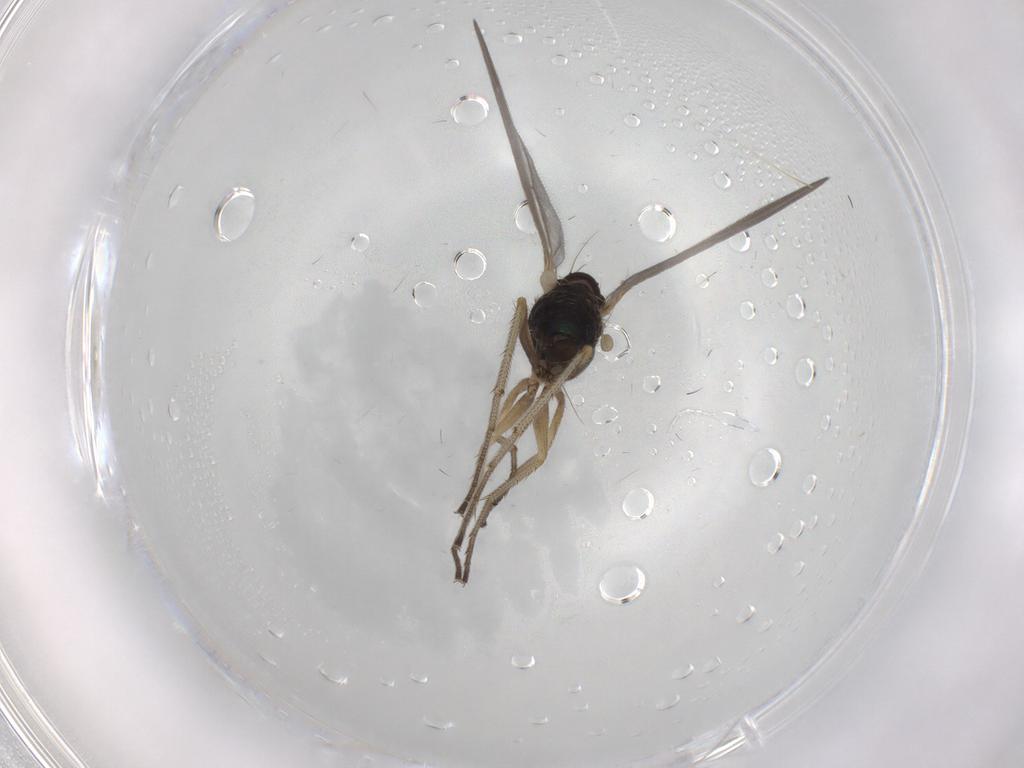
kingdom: Animalia
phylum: Arthropoda
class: Insecta
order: Diptera
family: Dolichopodidae
